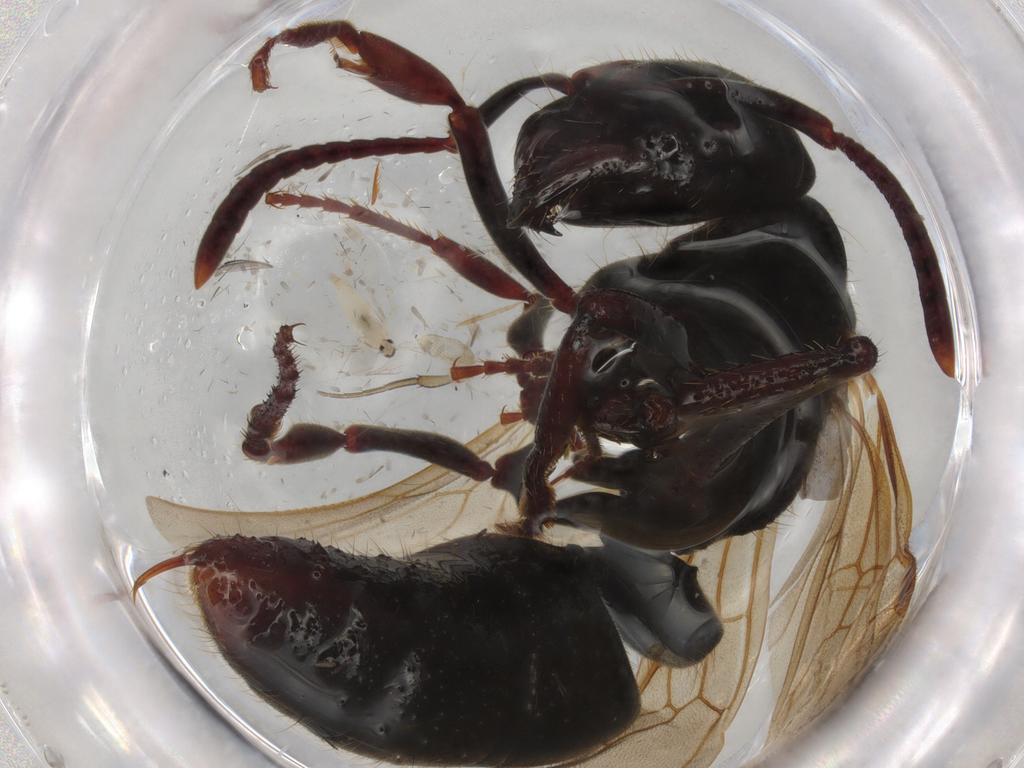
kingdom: Animalia
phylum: Arthropoda
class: Insecta
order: Hymenoptera
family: Formicidae
